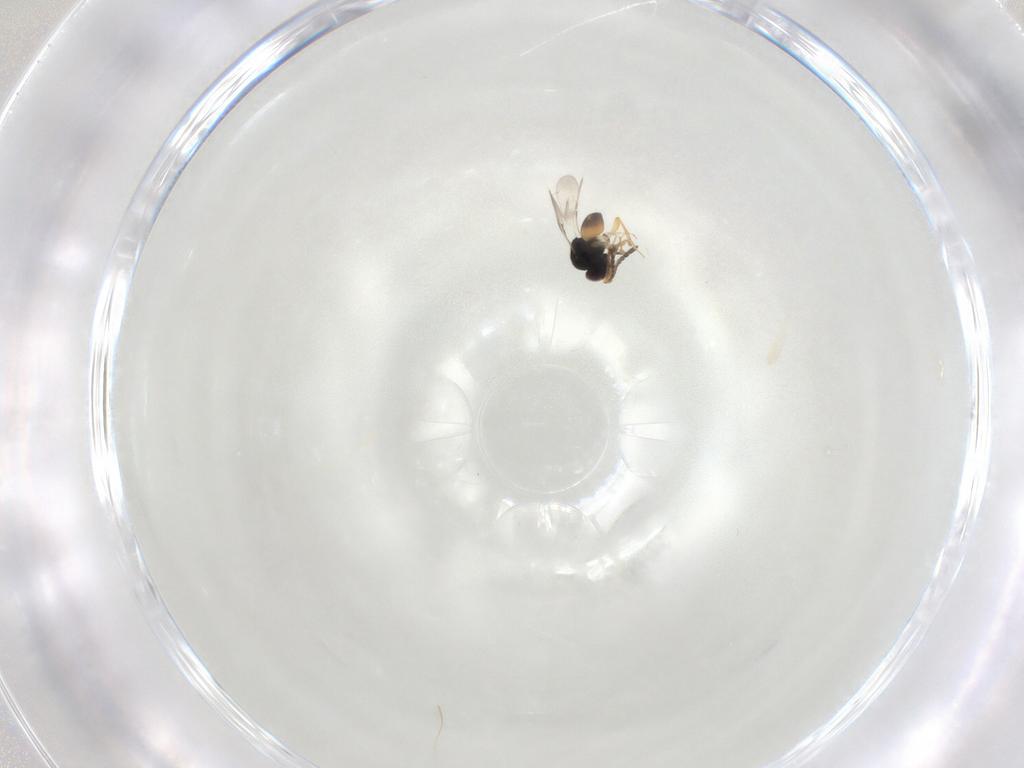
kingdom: Animalia
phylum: Arthropoda
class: Insecta
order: Hymenoptera
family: Ceraphronidae
